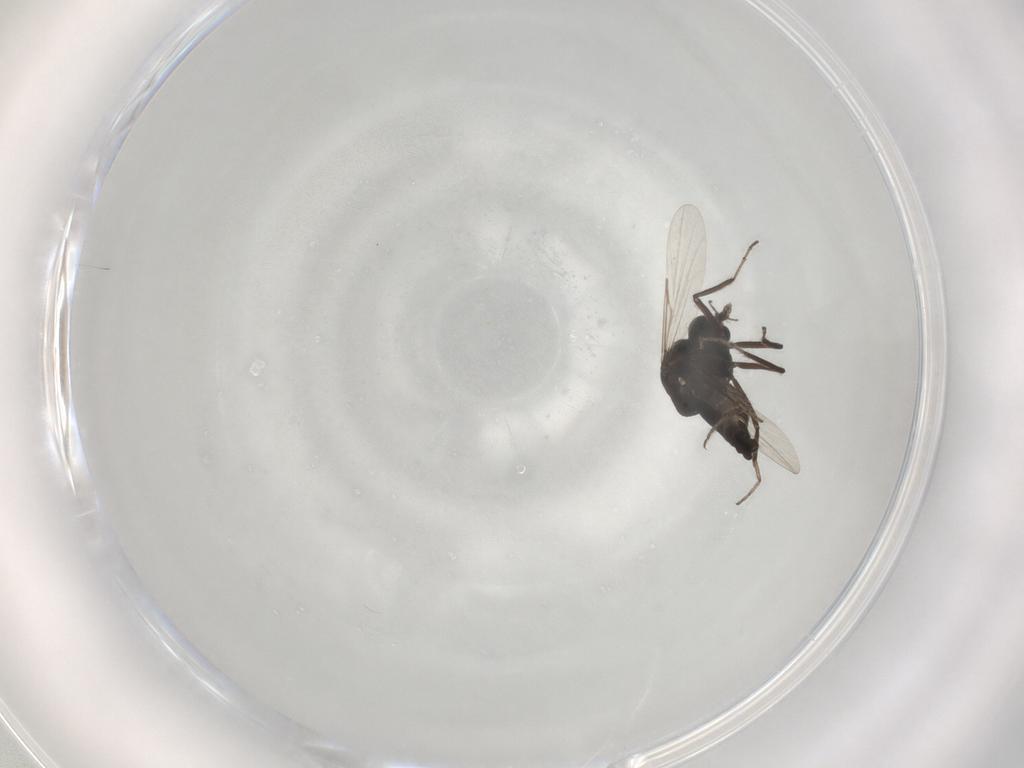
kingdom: Animalia
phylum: Arthropoda
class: Insecta
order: Diptera
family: Ceratopogonidae
